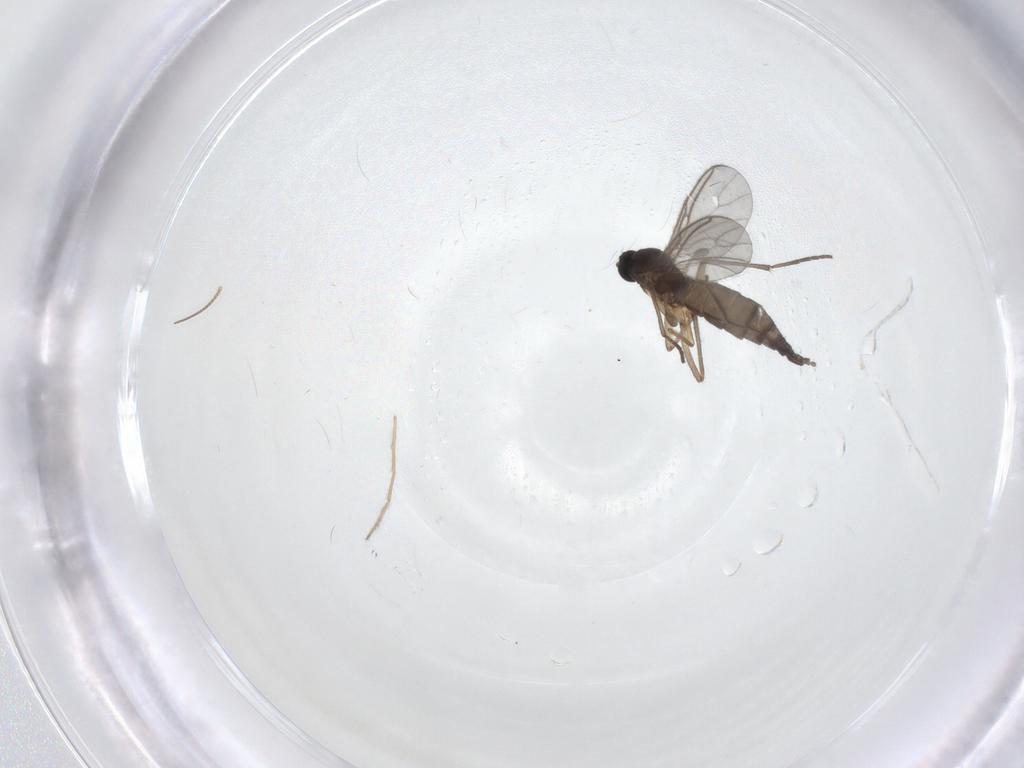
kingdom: Animalia
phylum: Arthropoda
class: Insecta
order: Diptera
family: Sciaridae
